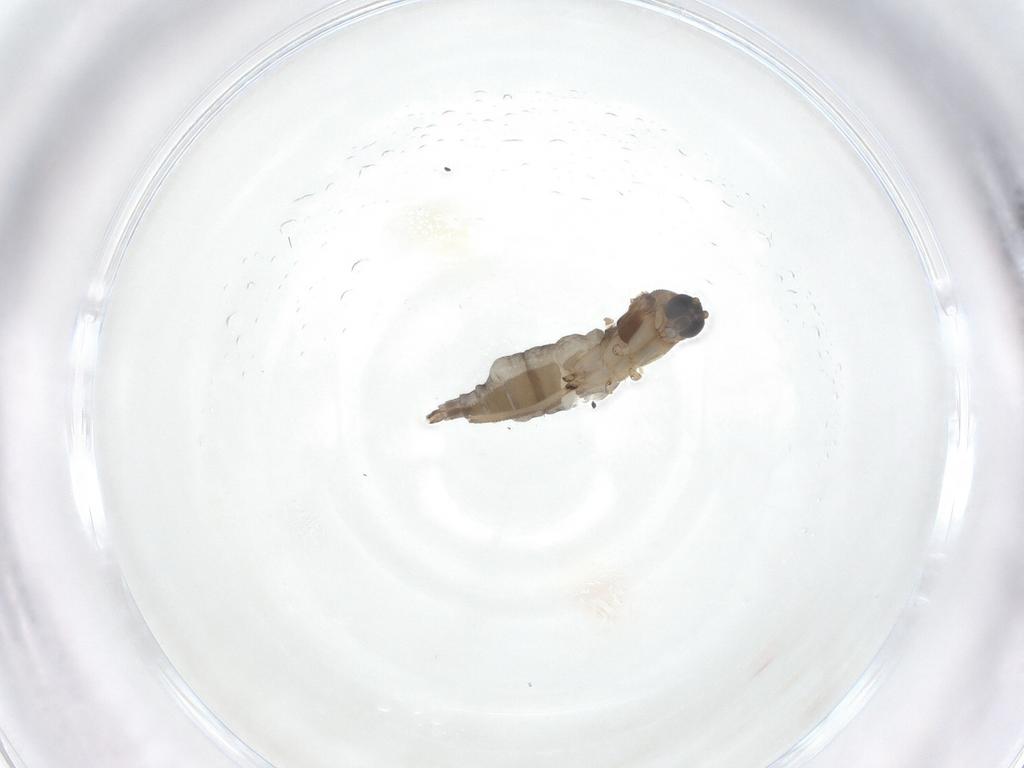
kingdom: Animalia
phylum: Arthropoda
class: Insecta
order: Diptera
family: Sciaridae
